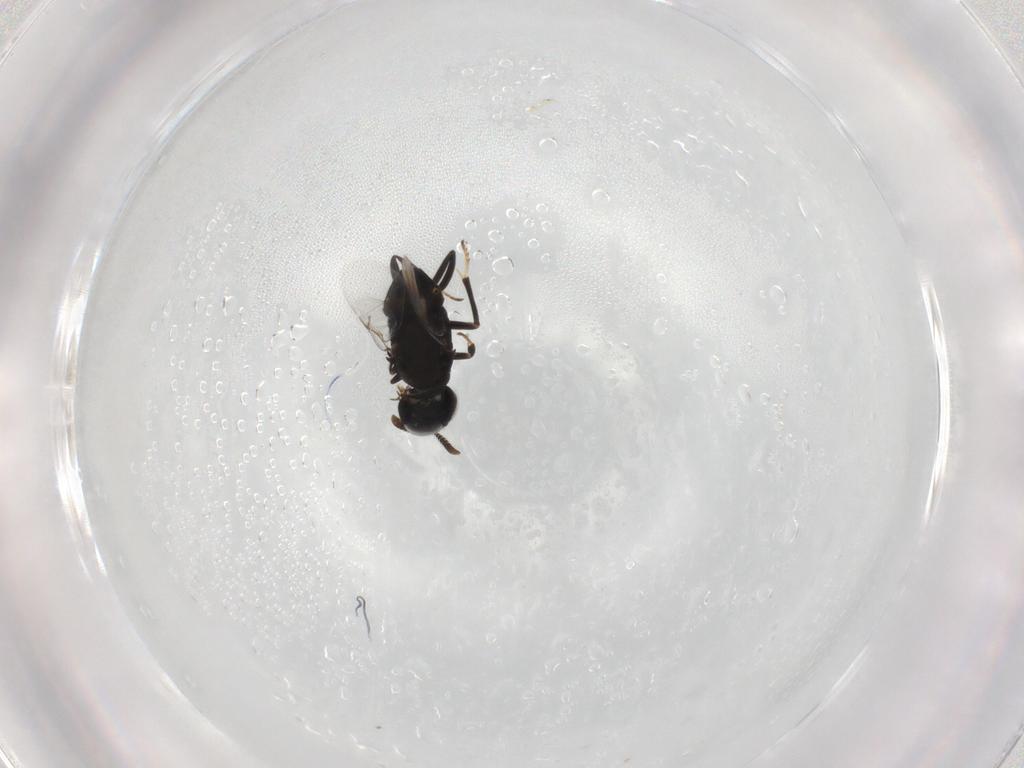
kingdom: Animalia
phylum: Arthropoda
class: Insecta
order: Hymenoptera
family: Encyrtidae
